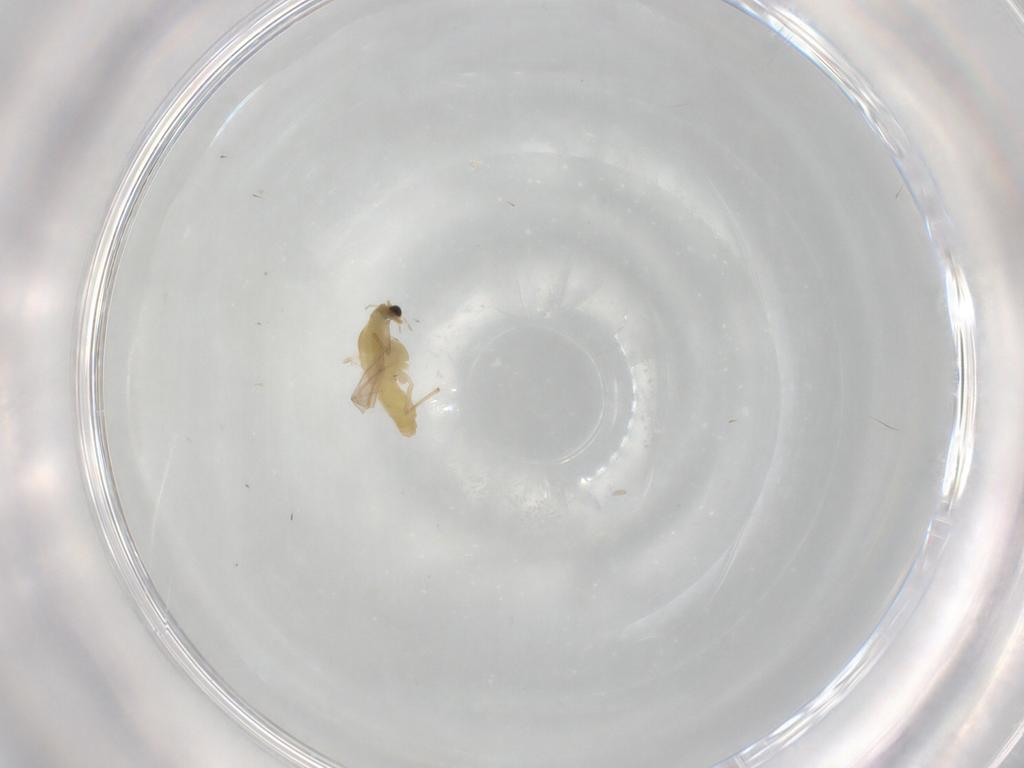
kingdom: Animalia
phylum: Arthropoda
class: Insecta
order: Diptera
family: Chironomidae
